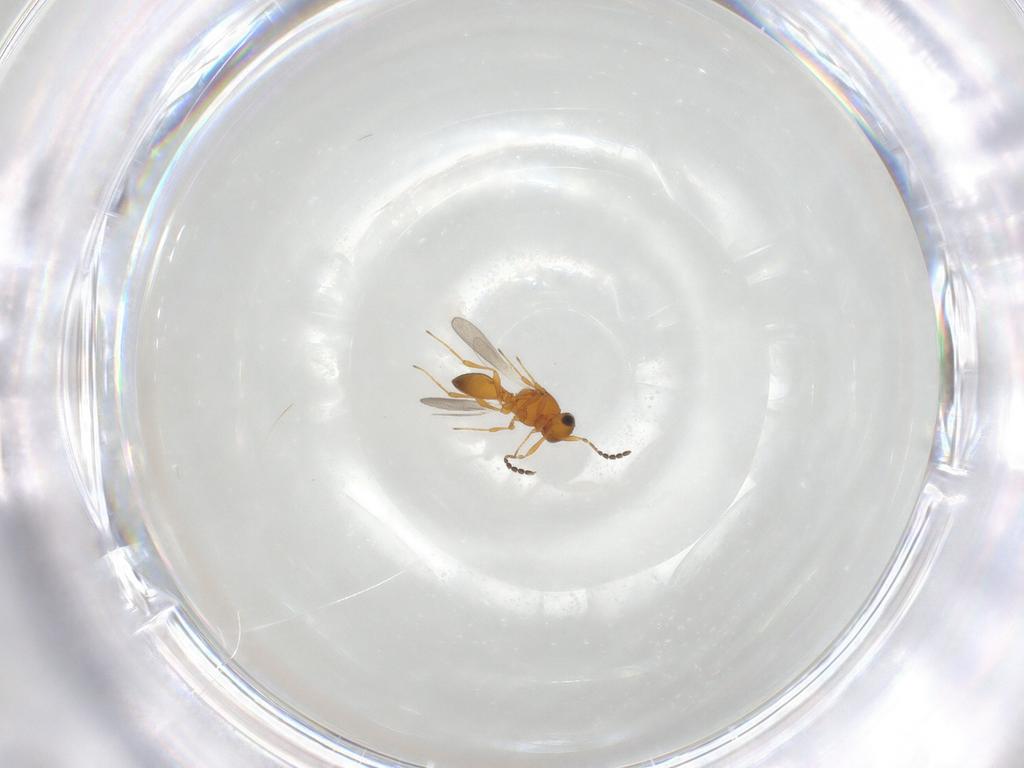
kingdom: Animalia
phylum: Arthropoda
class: Insecta
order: Hymenoptera
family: Platygastridae
